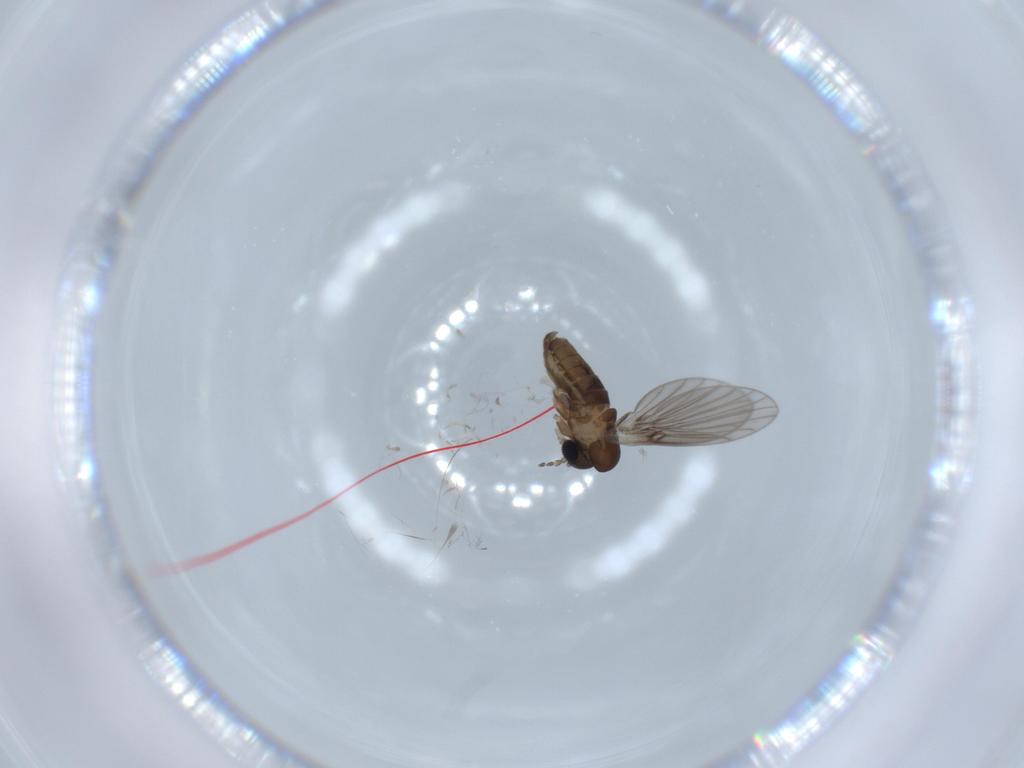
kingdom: Animalia
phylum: Arthropoda
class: Insecta
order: Diptera
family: Psychodidae
